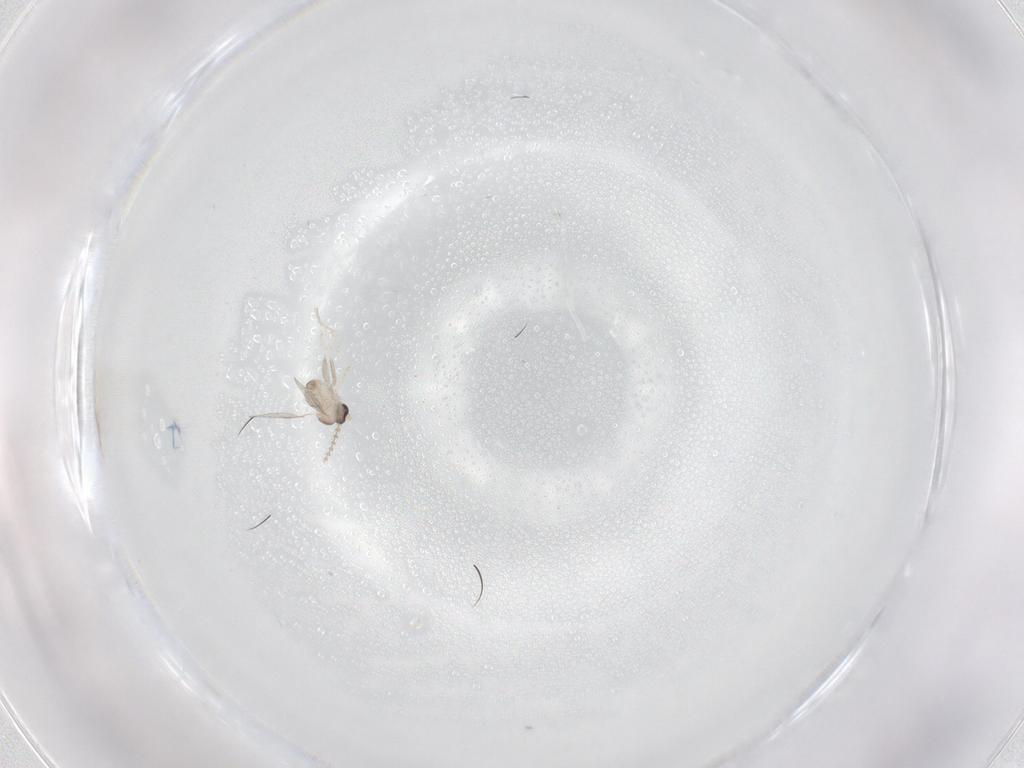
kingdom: Animalia
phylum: Arthropoda
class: Insecta
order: Diptera
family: Cecidomyiidae
